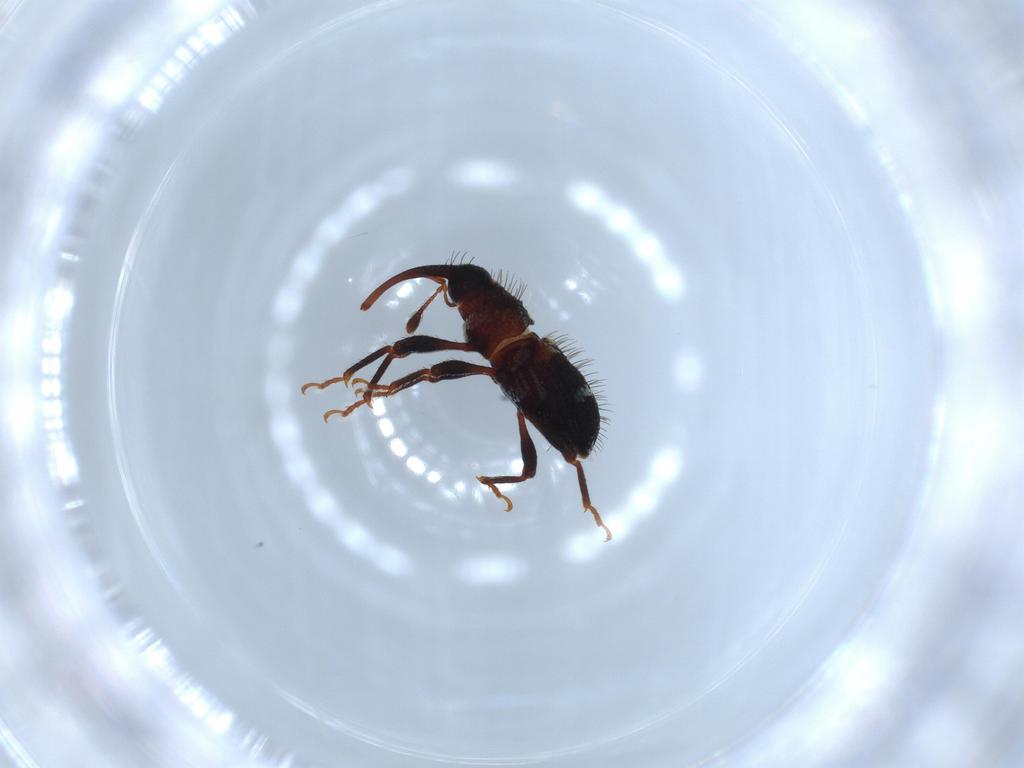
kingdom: Animalia
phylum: Arthropoda
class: Insecta
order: Coleoptera
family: Curculionidae
